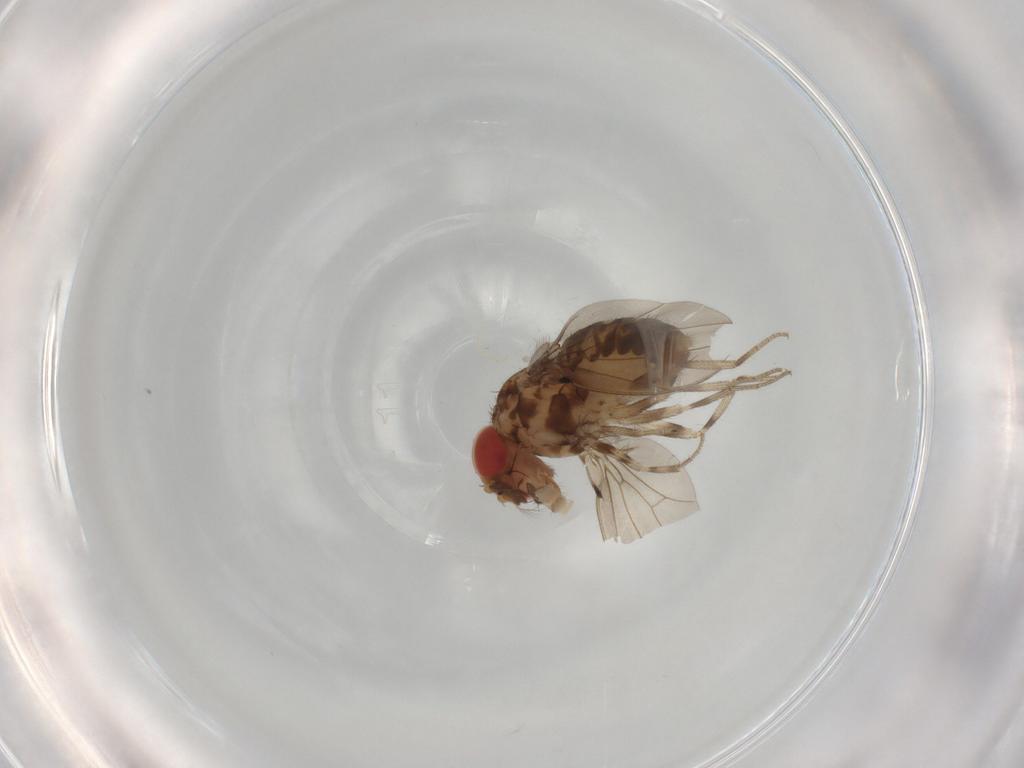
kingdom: Animalia
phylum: Arthropoda
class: Insecta
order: Diptera
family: Drosophilidae
